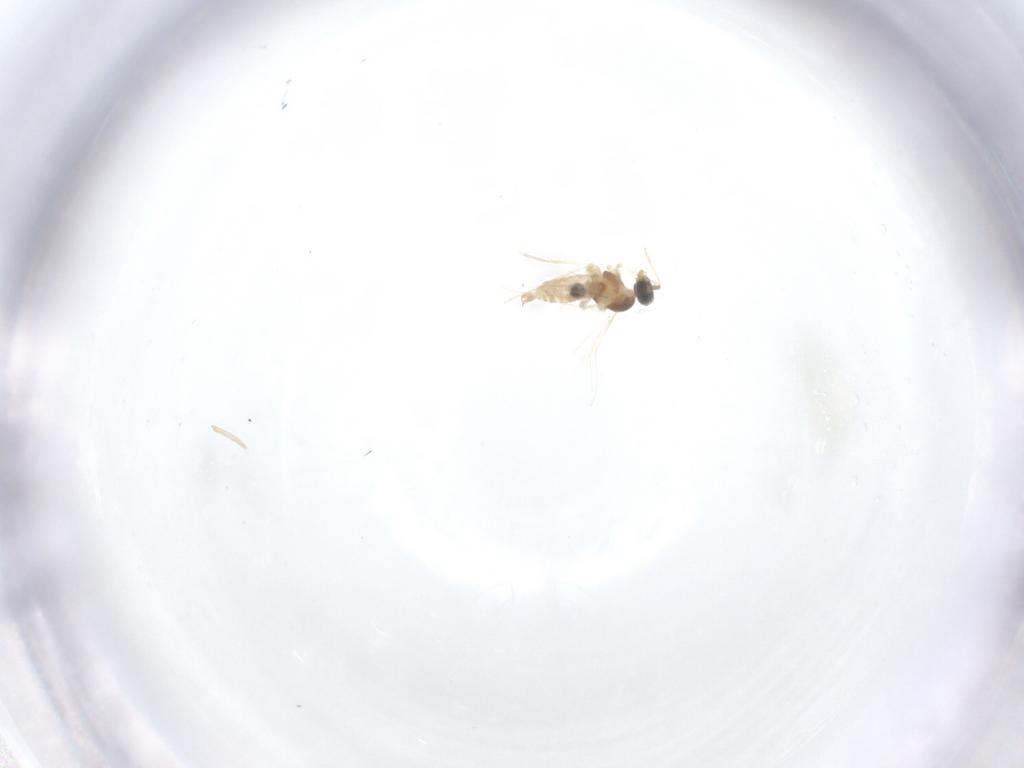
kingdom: Animalia
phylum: Arthropoda
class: Insecta
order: Diptera
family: Cecidomyiidae
